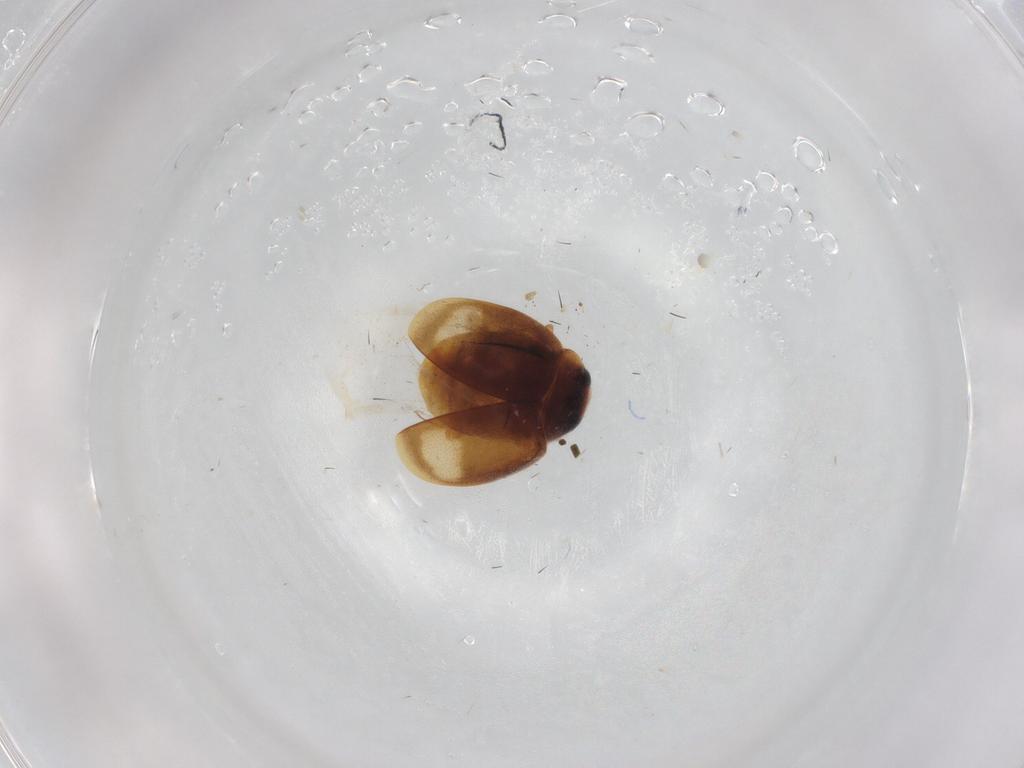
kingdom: Animalia
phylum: Arthropoda
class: Insecta
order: Coleoptera
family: Coccinellidae
